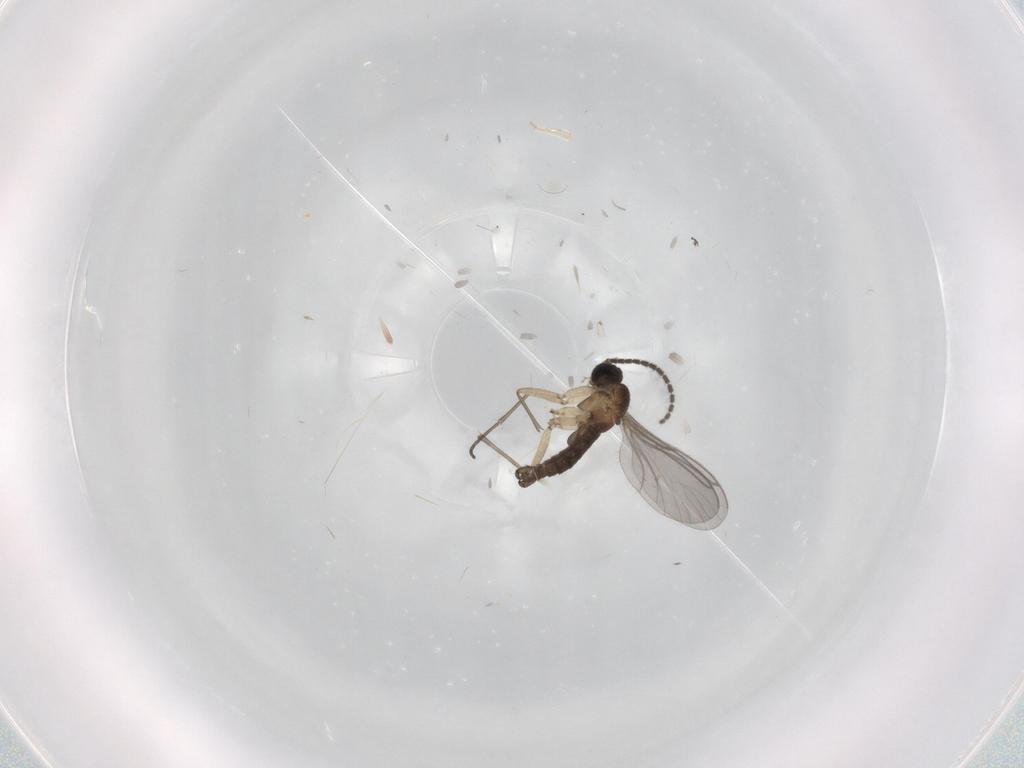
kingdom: Animalia
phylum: Arthropoda
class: Insecta
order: Diptera
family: Sciaridae
